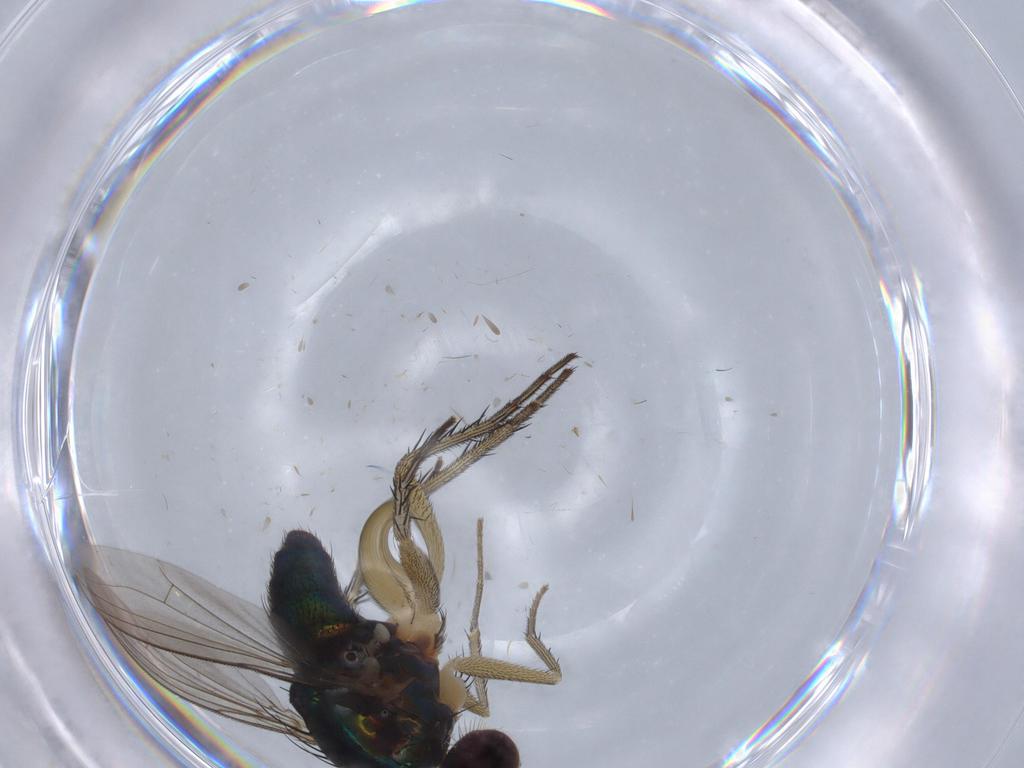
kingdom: Animalia
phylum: Arthropoda
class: Insecta
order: Diptera
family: Dolichopodidae
